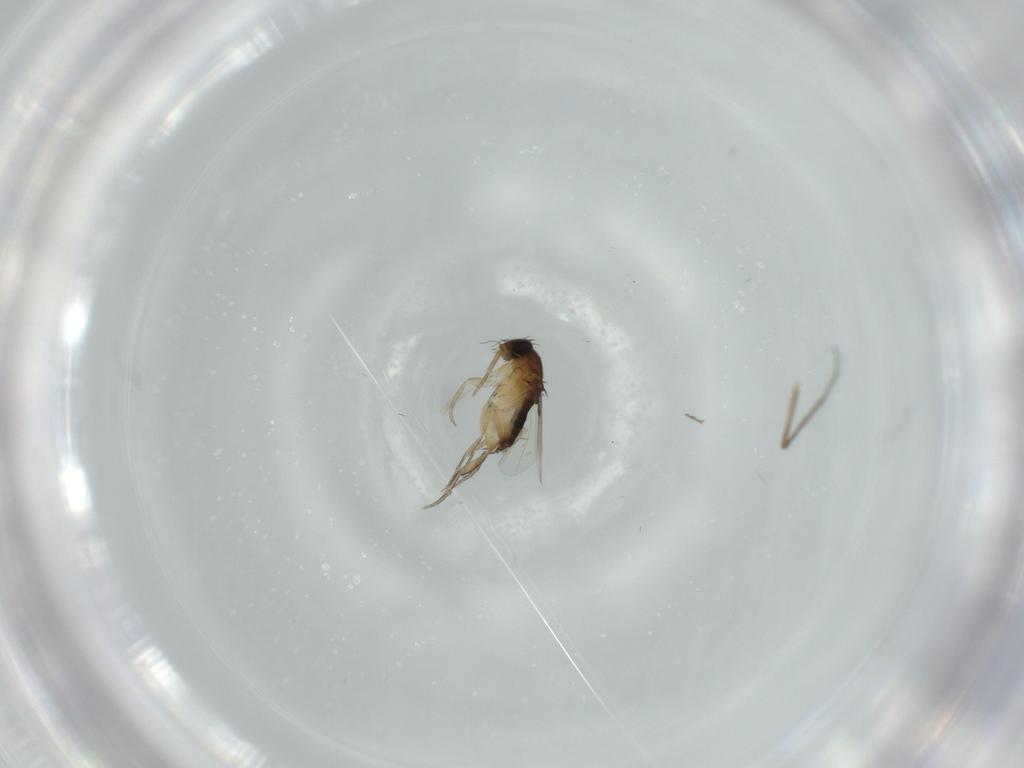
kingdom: Animalia
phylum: Arthropoda
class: Insecta
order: Diptera
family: Phoridae
